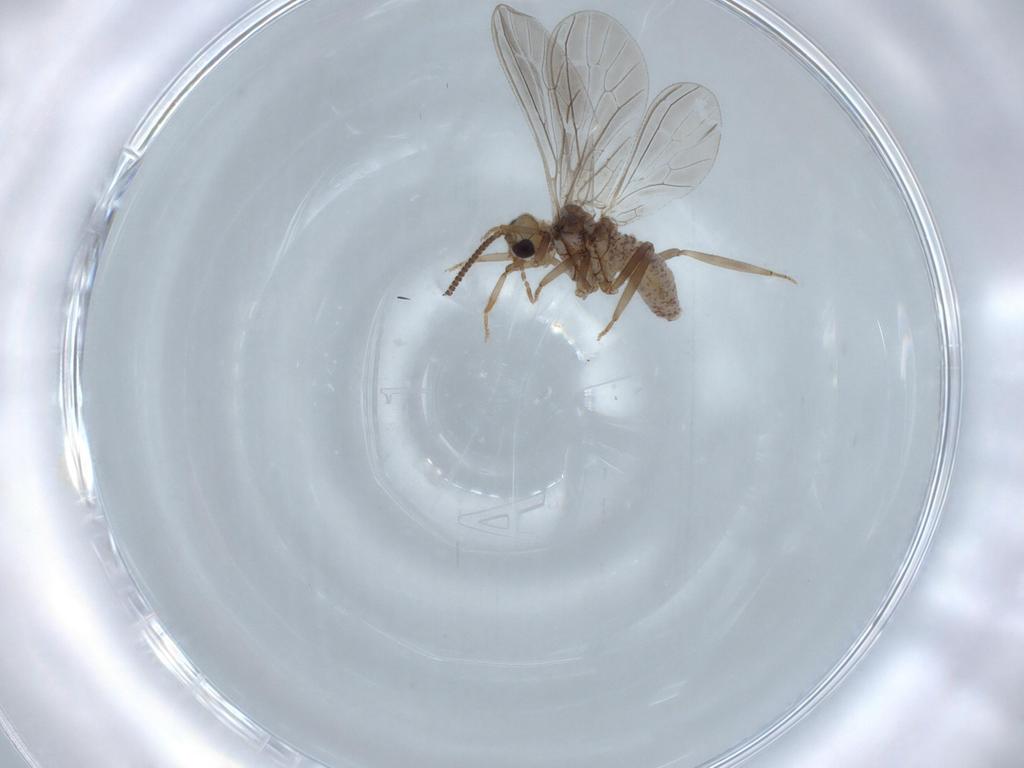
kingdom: Animalia
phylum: Arthropoda
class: Insecta
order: Neuroptera
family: Coniopterygidae
